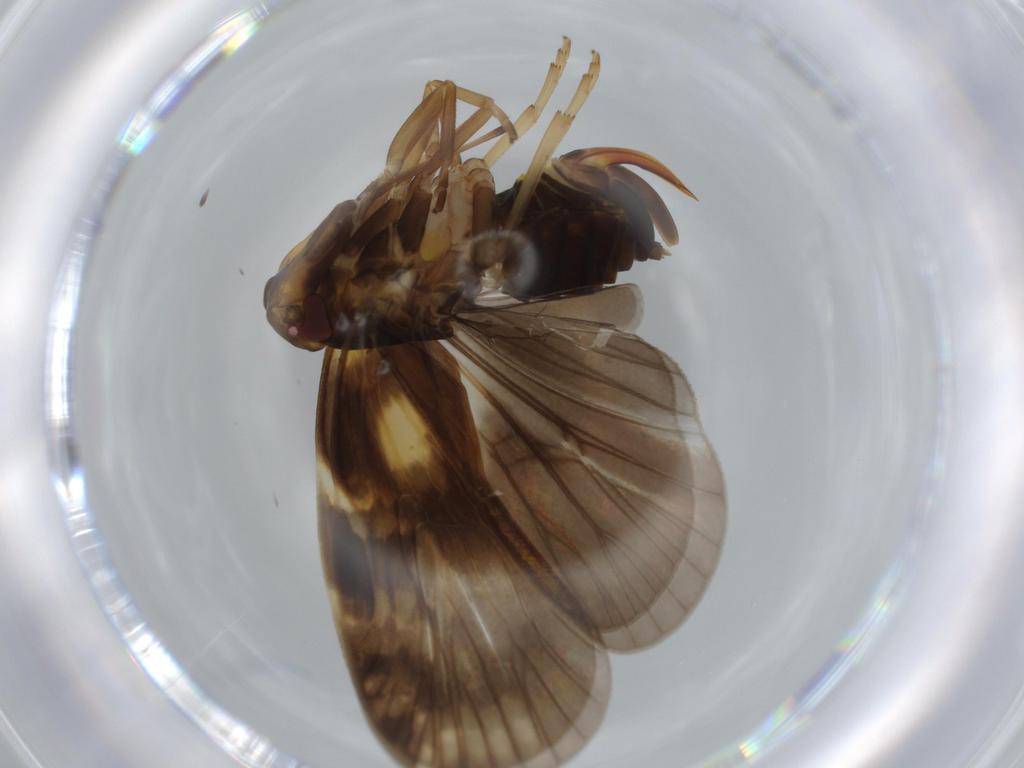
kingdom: Animalia
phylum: Arthropoda
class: Insecta
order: Hemiptera
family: Cixiidae
